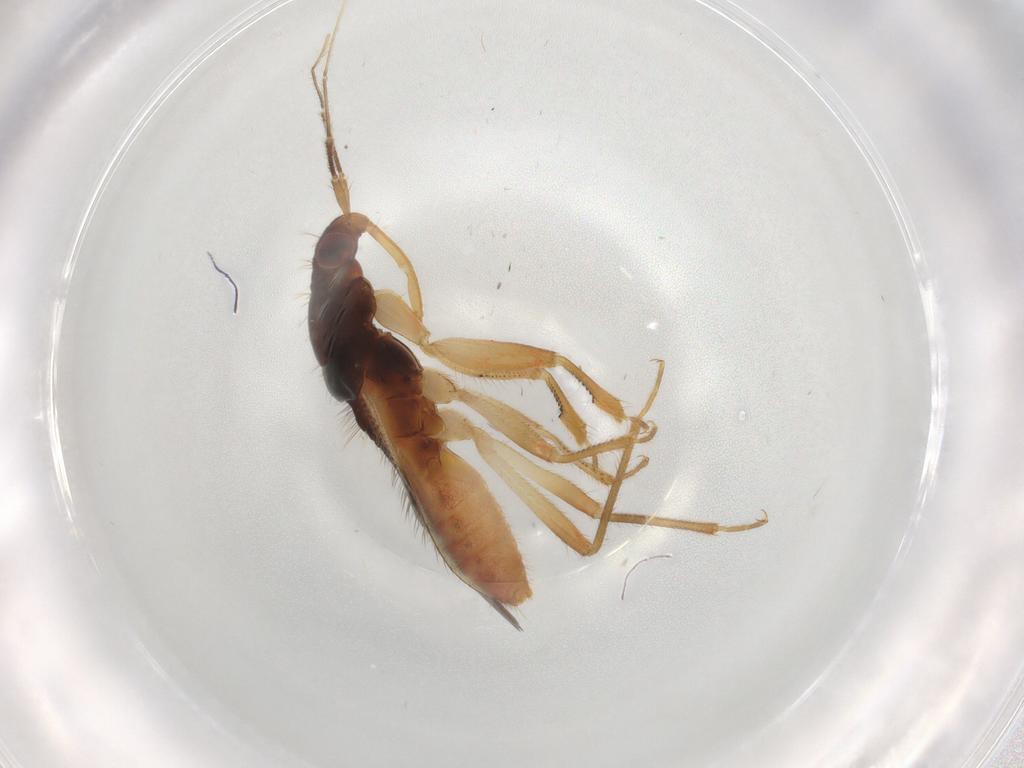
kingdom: Animalia
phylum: Arthropoda
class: Insecta
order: Hemiptera
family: Nabidae
